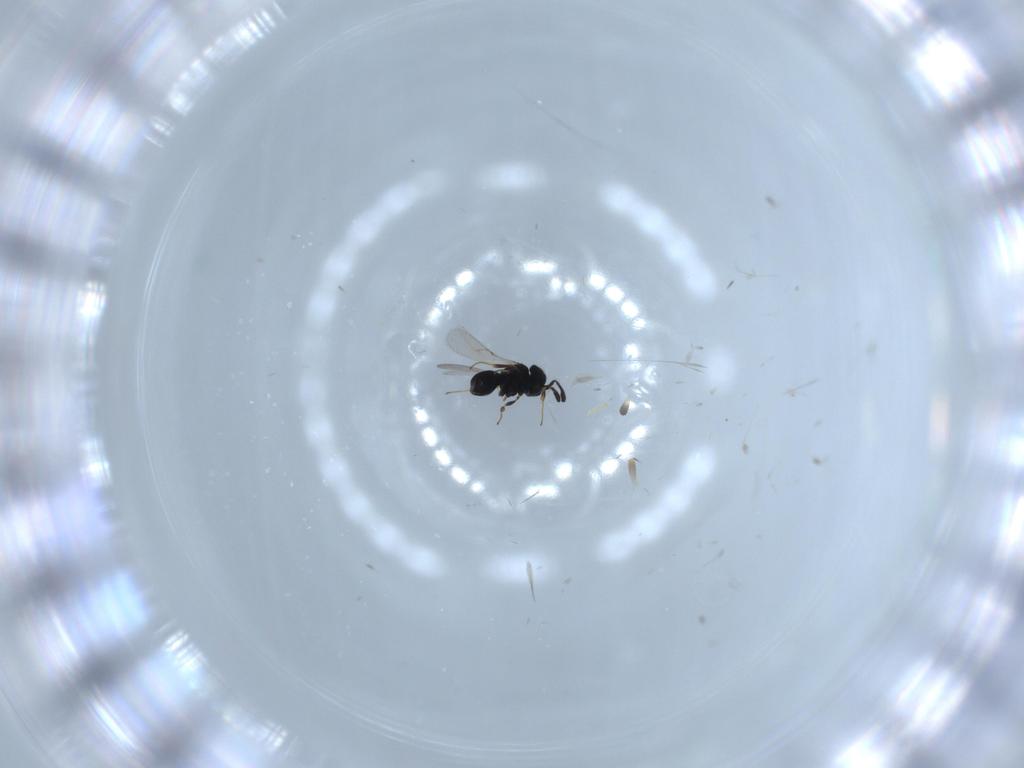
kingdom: Animalia
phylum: Arthropoda
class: Insecta
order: Hymenoptera
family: Scelionidae
